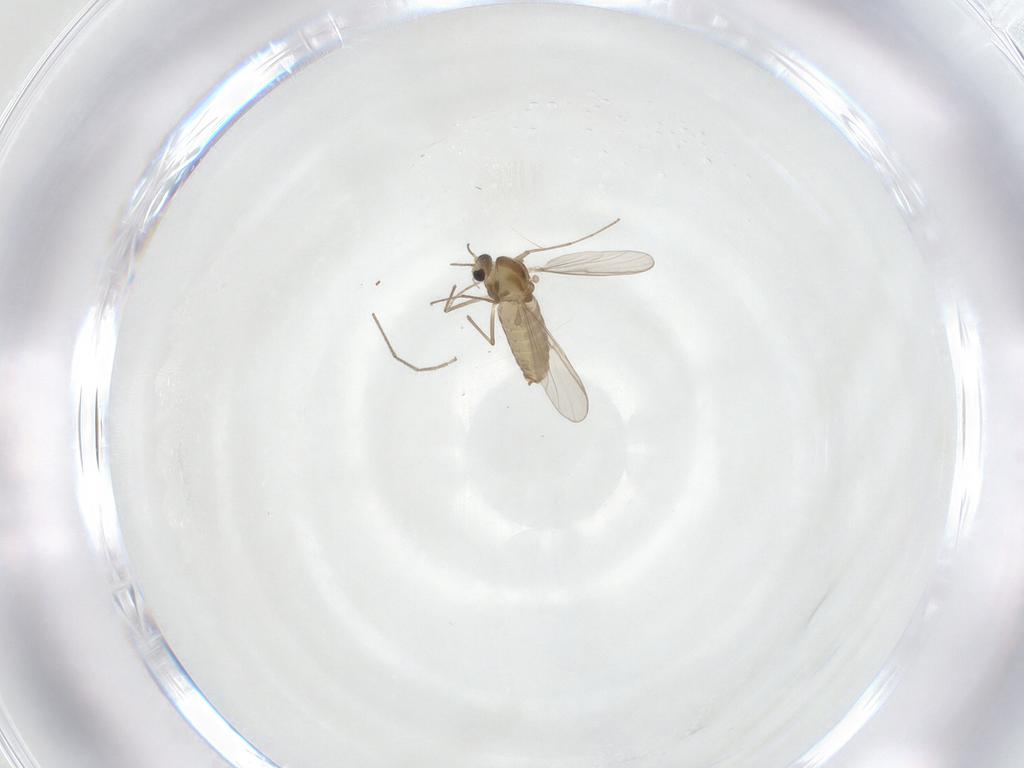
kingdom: Animalia
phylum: Arthropoda
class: Insecta
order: Diptera
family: Chironomidae
